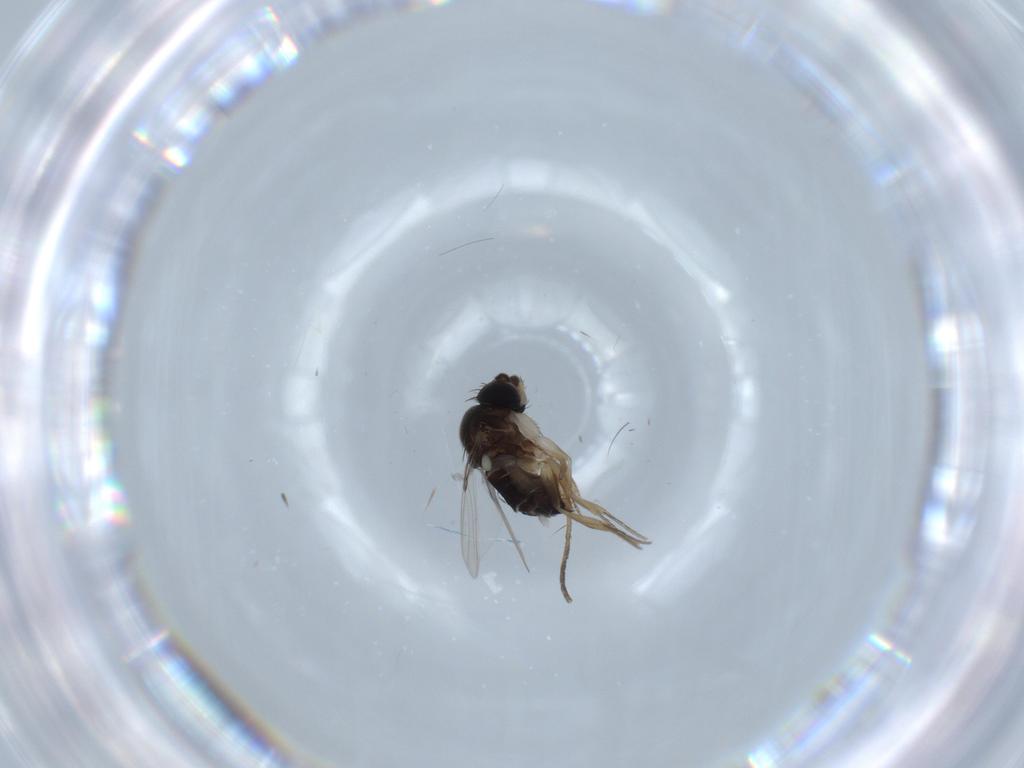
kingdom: Animalia
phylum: Arthropoda
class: Insecta
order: Diptera
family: Phoridae
